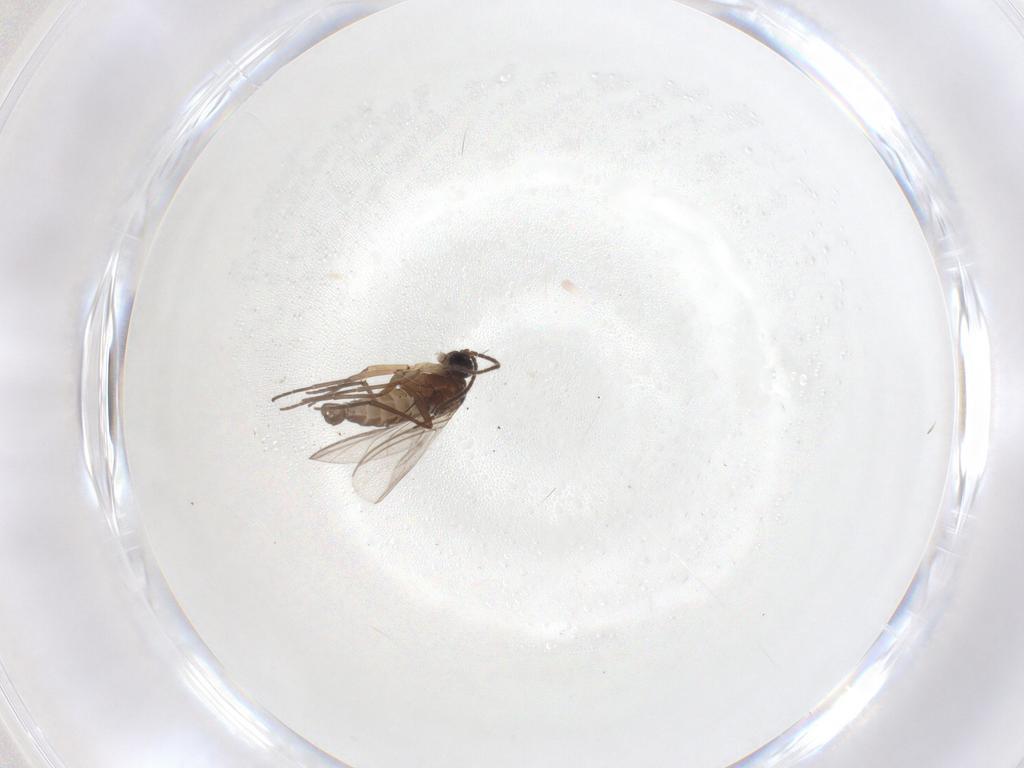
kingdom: Animalia
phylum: Arthropoda
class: Insecta
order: Diptera
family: Sciaridae
